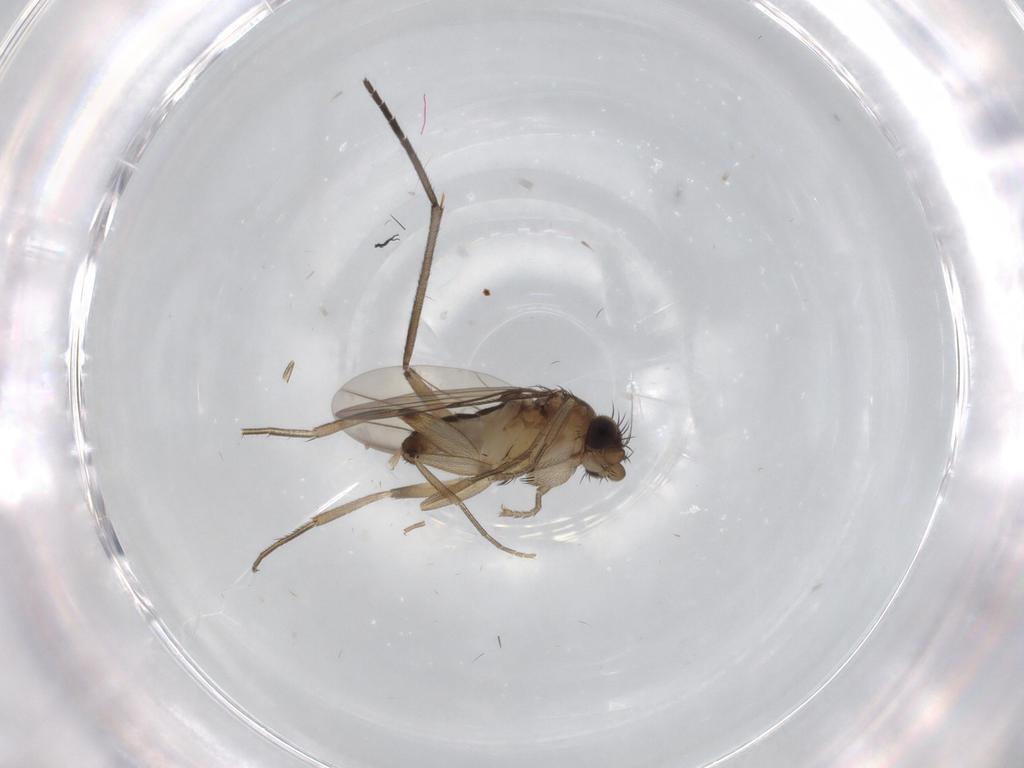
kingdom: Animalia
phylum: Arthropoda
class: Insecta
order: Diptera
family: Phoridae
